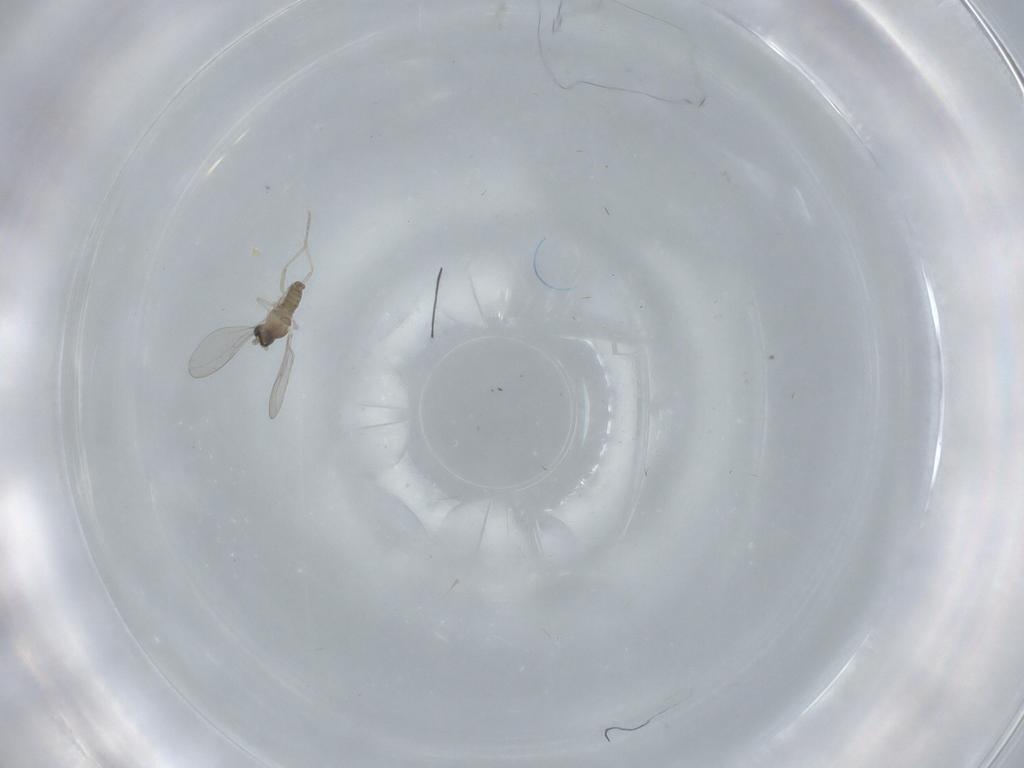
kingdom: Animalia
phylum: Arthropoda
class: Insecta
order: Diptera
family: Cecidomyiidae
